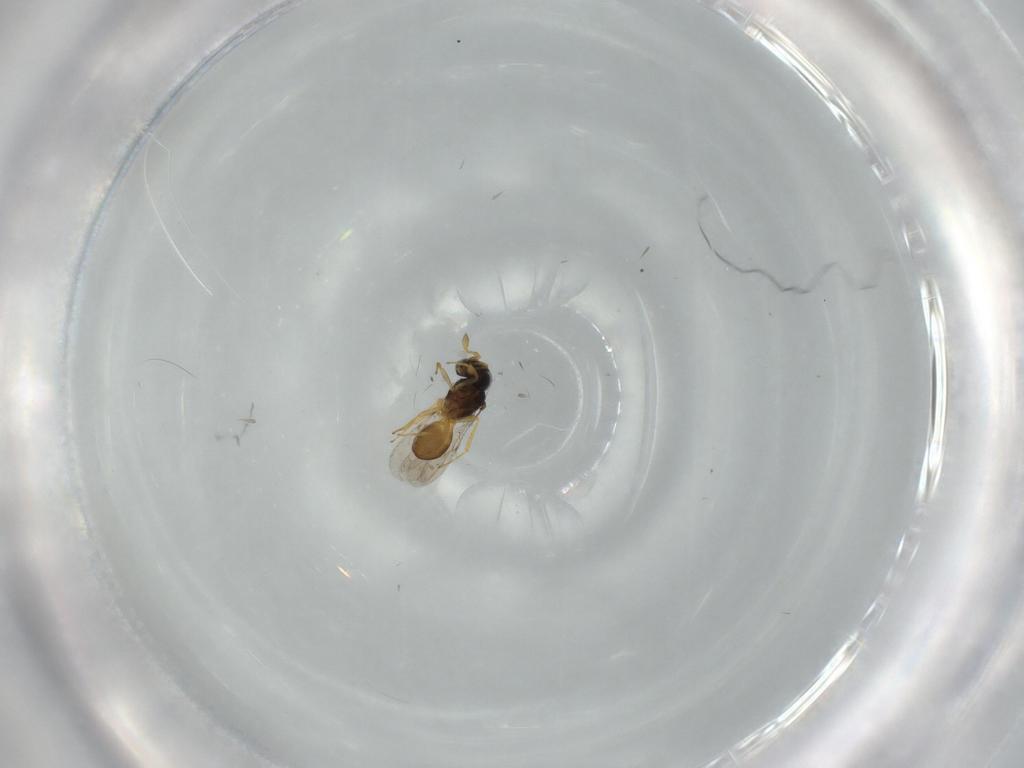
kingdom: Animalia
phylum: Arthropoda
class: Insecta
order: Hymenoptera
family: Scelionidae
